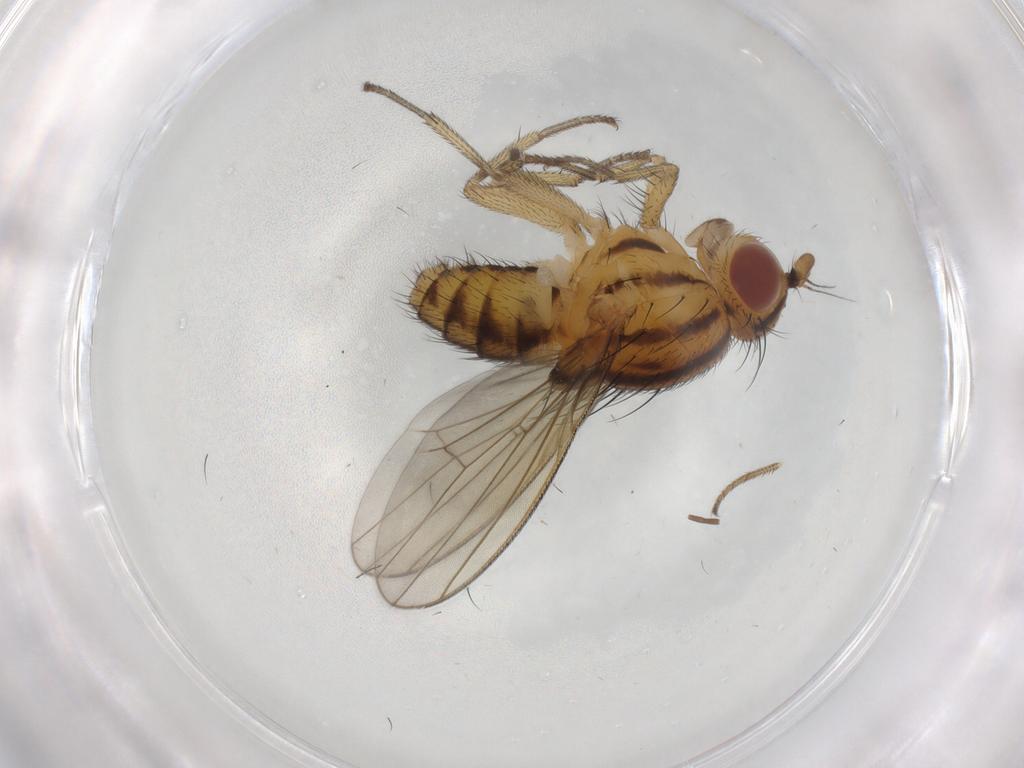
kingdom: Animalia
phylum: Arthropoda
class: Insecta
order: Diptera
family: Dolichopodidae
